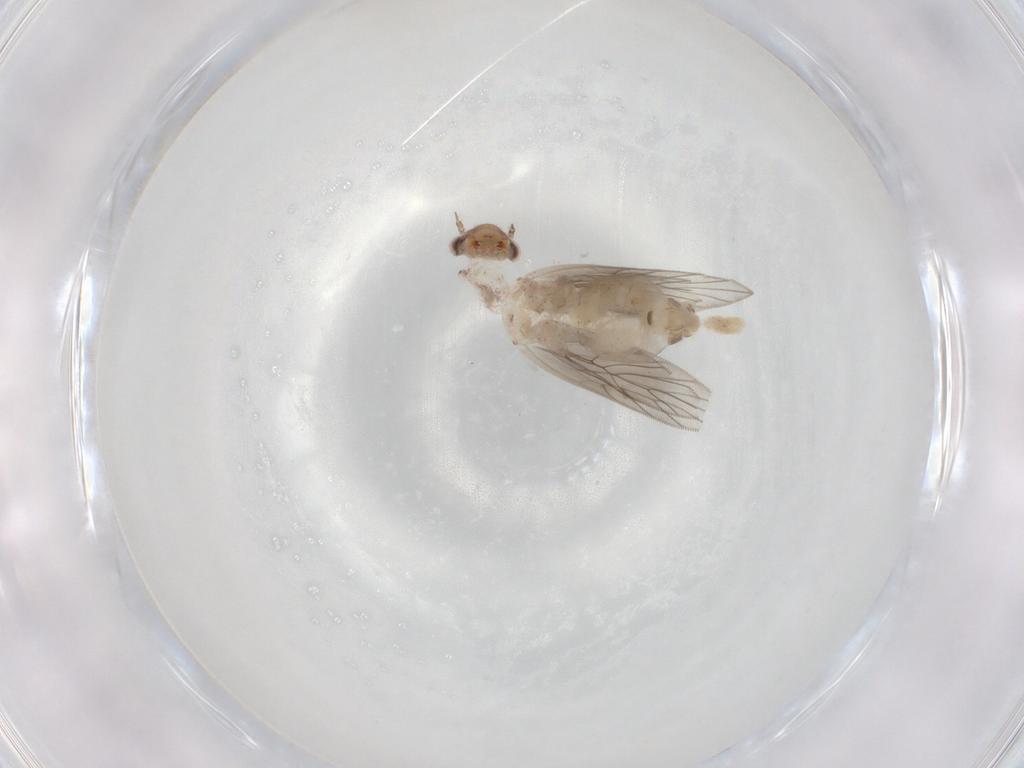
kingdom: Animalia
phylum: Arthropoda
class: Insecta
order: Psocodea
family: Lepidopsocidae
